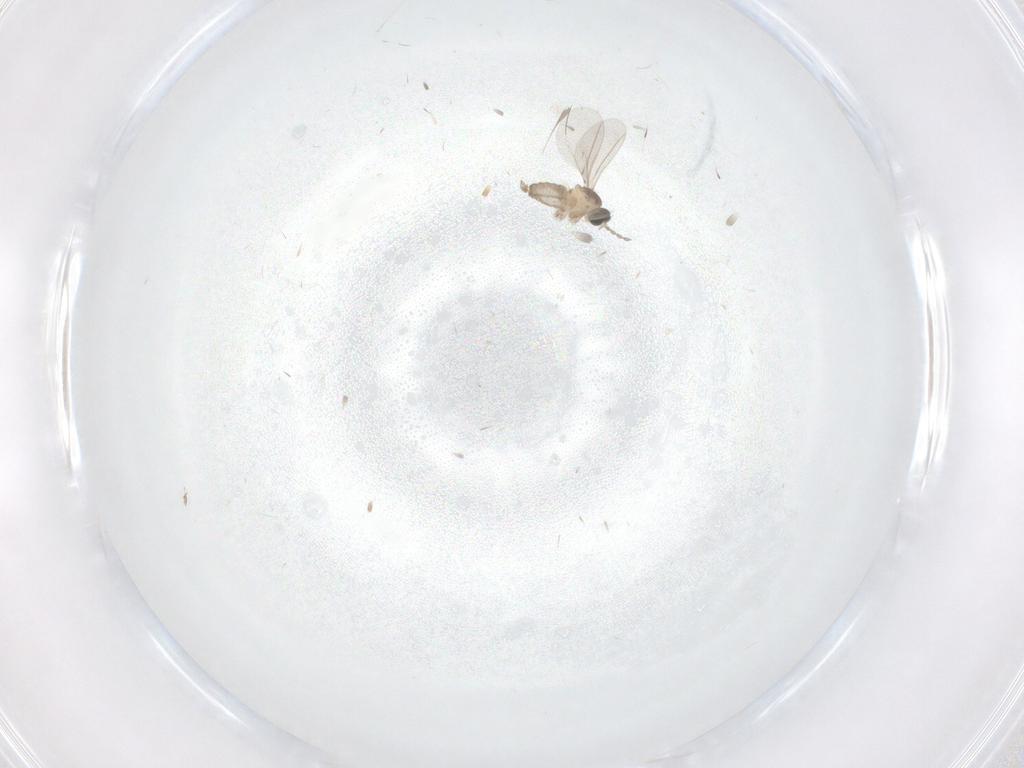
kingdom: Animalia
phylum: Arthropoda
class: Insecta
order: Diptera
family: Cecidomyiidae
